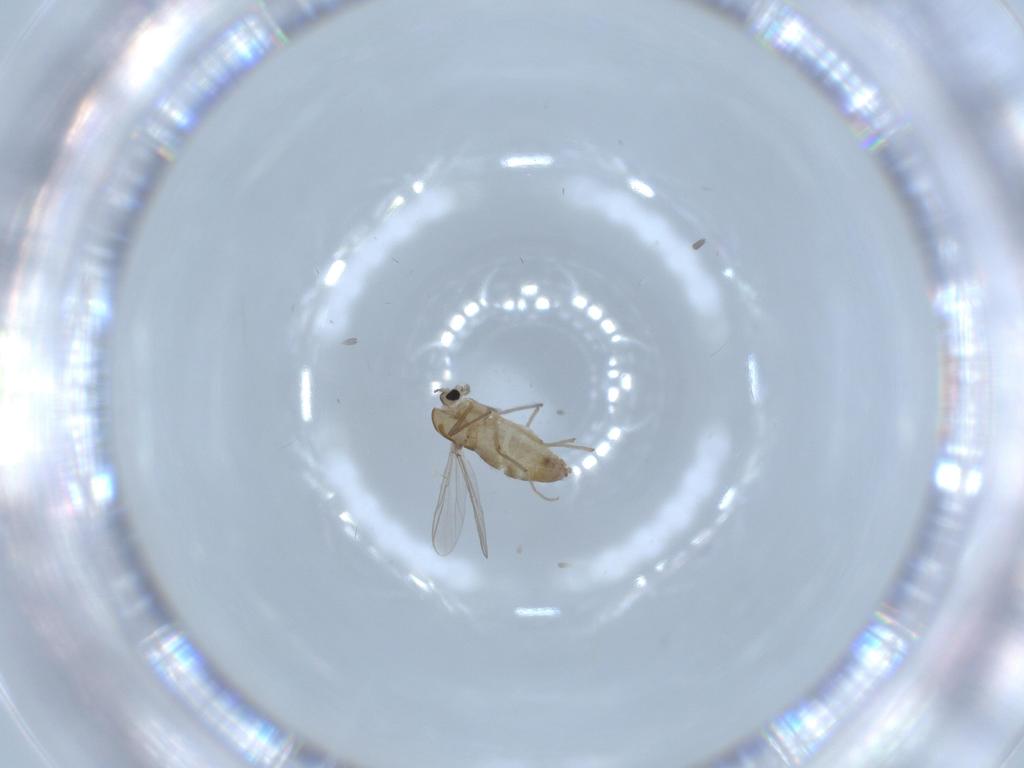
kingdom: Animalia
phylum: Arthropoda
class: Insecta
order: Diptera
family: Chironomidae
